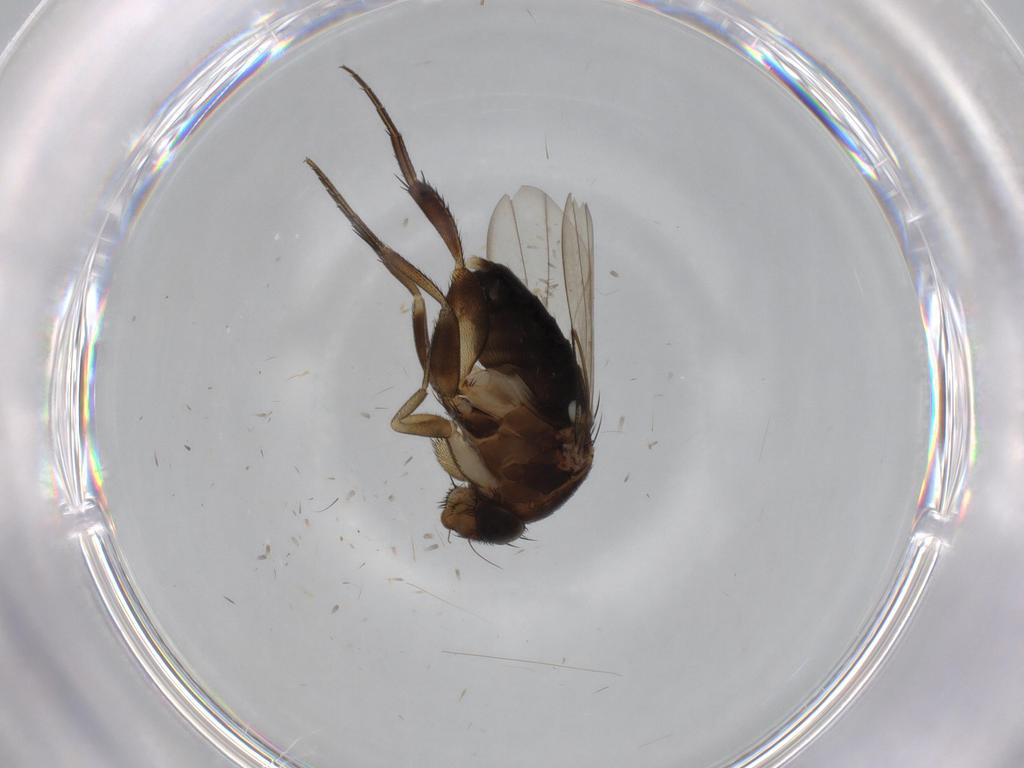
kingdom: Animalia
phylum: Arthropoda
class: Insecta
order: Diptera
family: Phoridae
